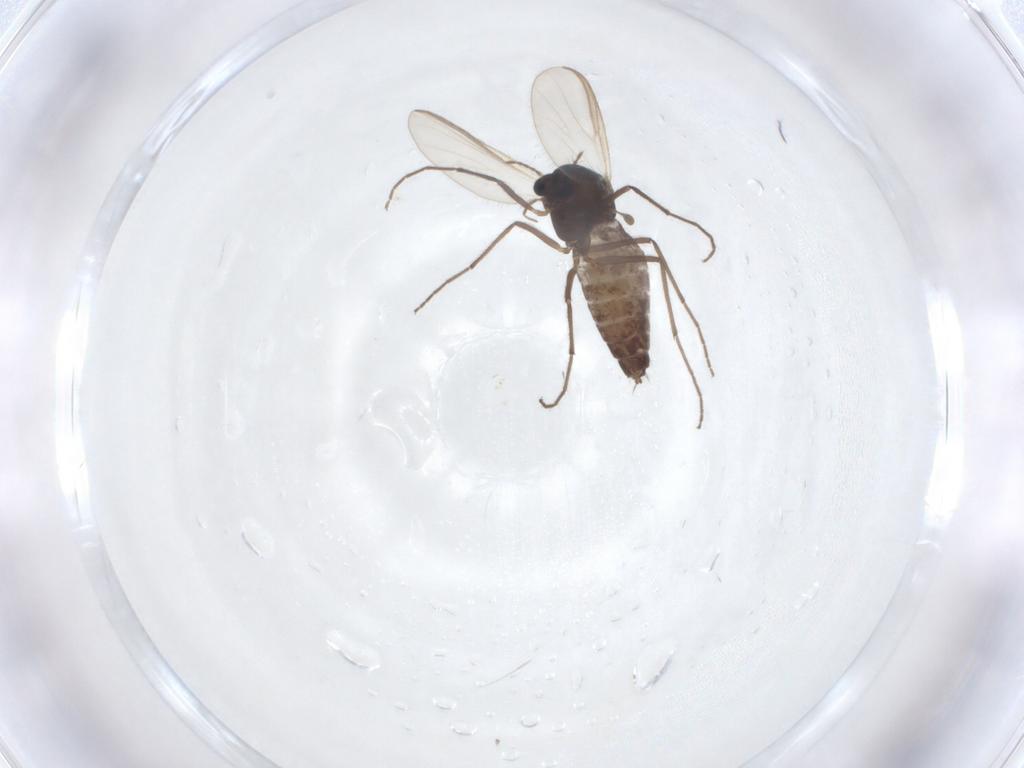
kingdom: Animalia
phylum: Arthropoda
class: Insecta
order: Diptera
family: Chironomidae
